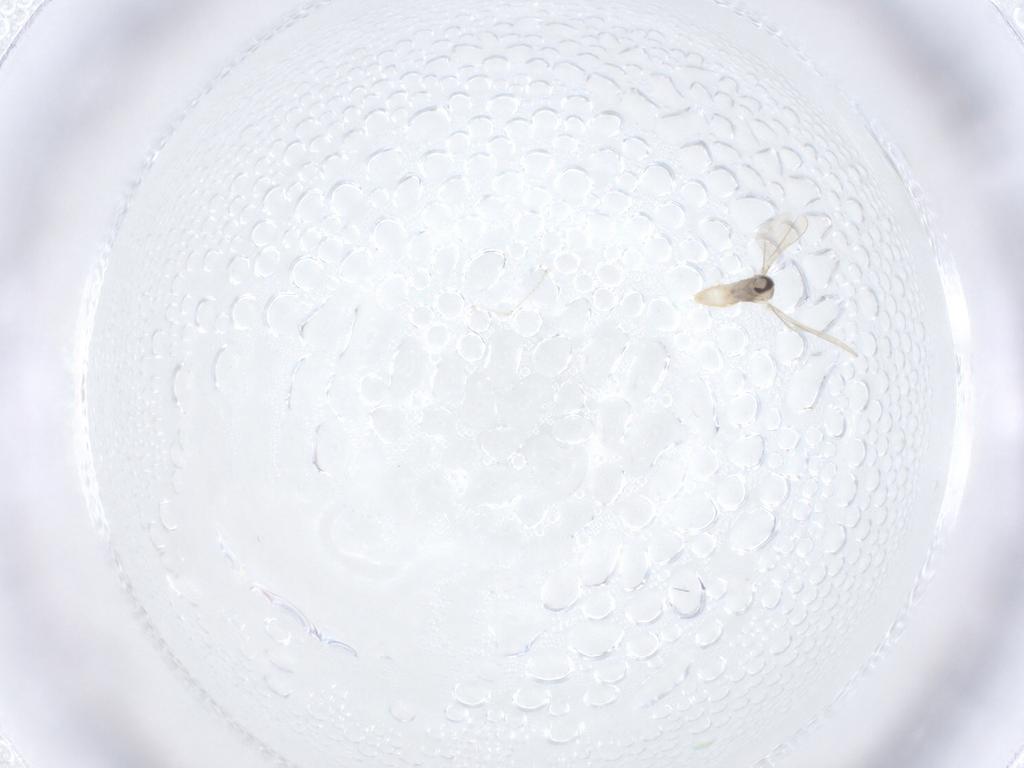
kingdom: Animalia
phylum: Arthropoda
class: Insecta
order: Diptera
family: Cecidomyiidae
